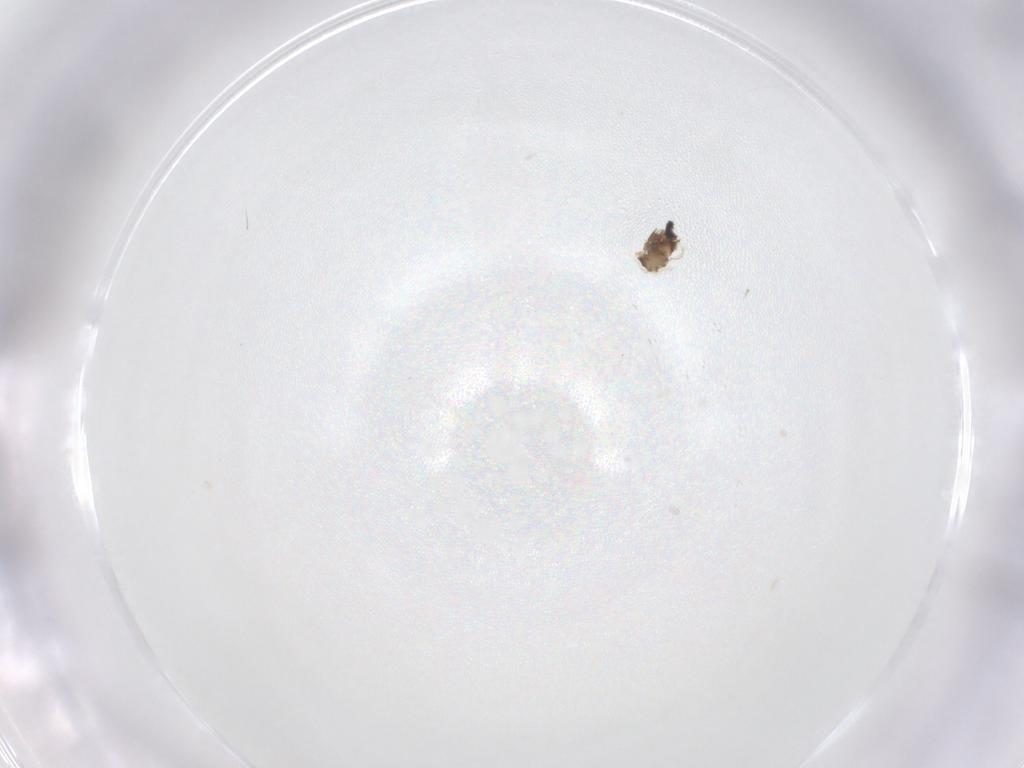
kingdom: Animalia
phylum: Arthropoda
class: Insecta
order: Diptera
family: Cecidomyiidae
